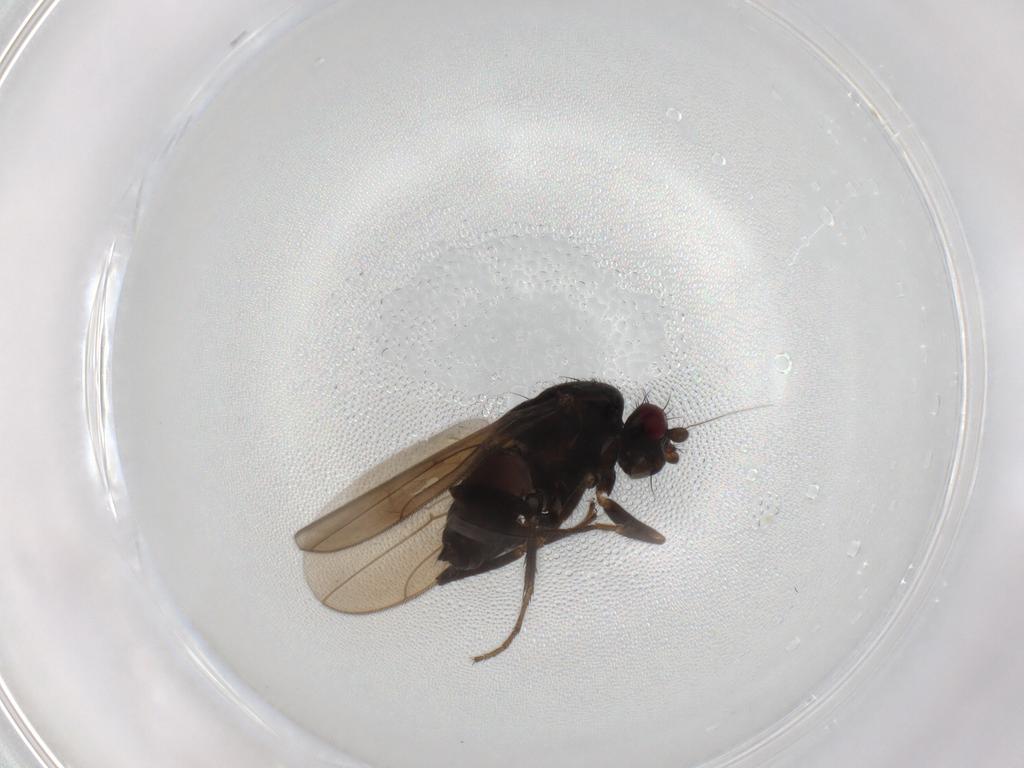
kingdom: Animalia
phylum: Arthropoda
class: Insecta
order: Diptera
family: Sphaeroceridae
